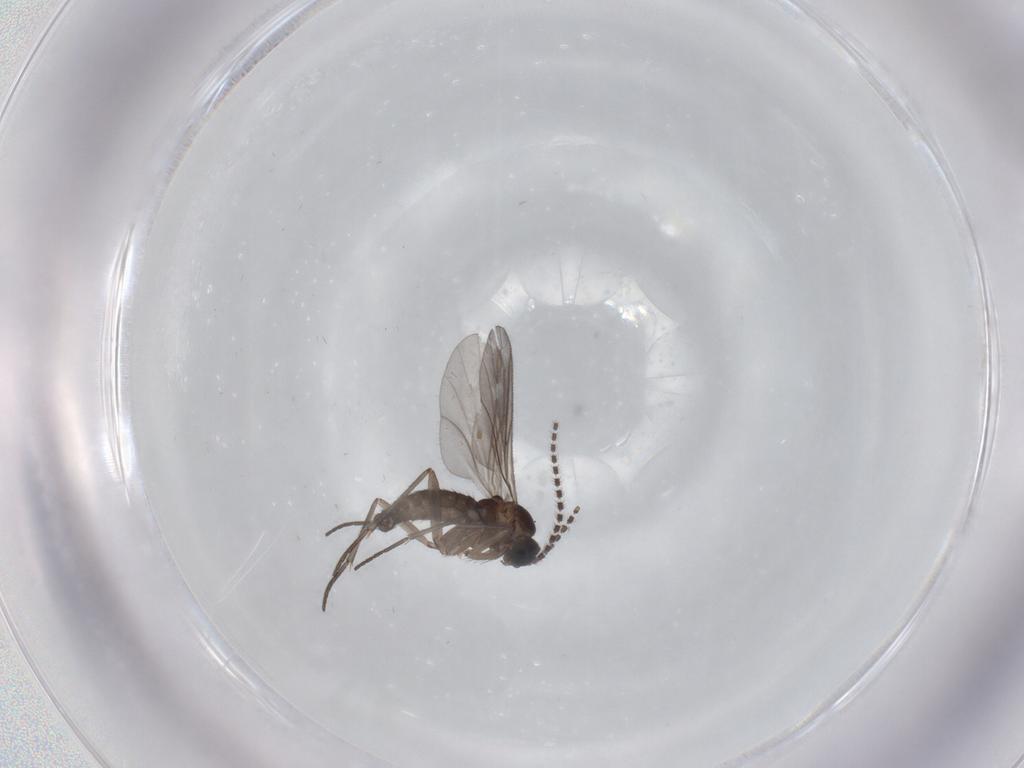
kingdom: Animalia
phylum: Arthropoda
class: Insecta
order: Diptera
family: Sciaridae
